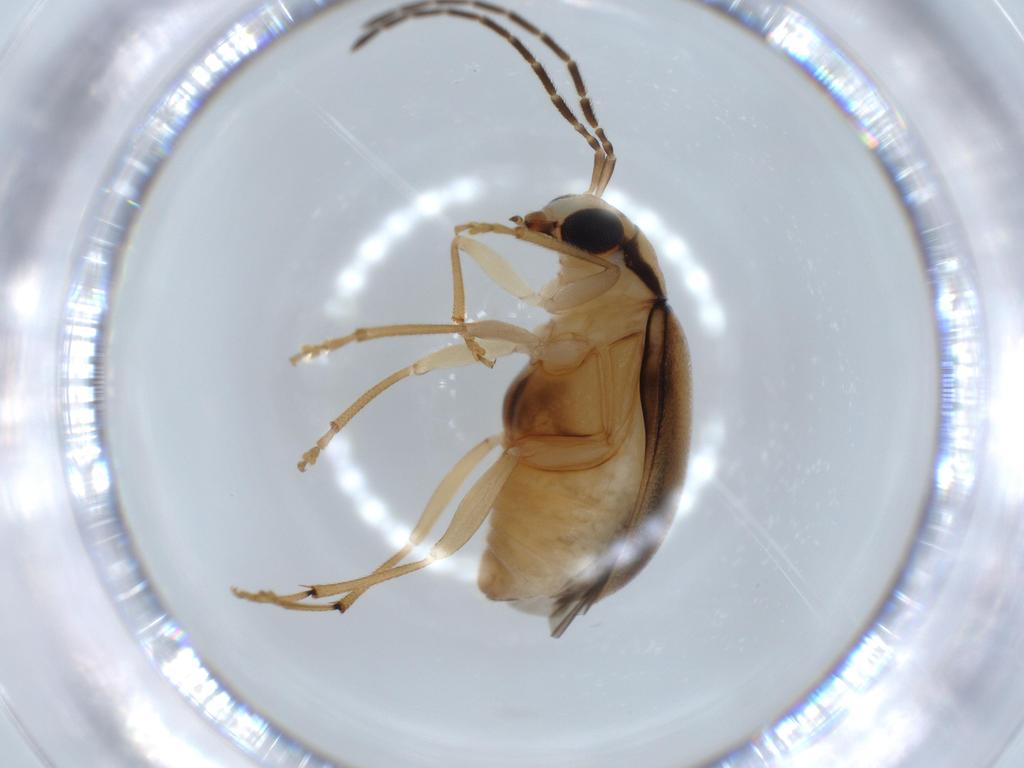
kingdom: Animalia
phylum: Arthropoda
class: Insecta
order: Coleoptera
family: Chrysomelidae
